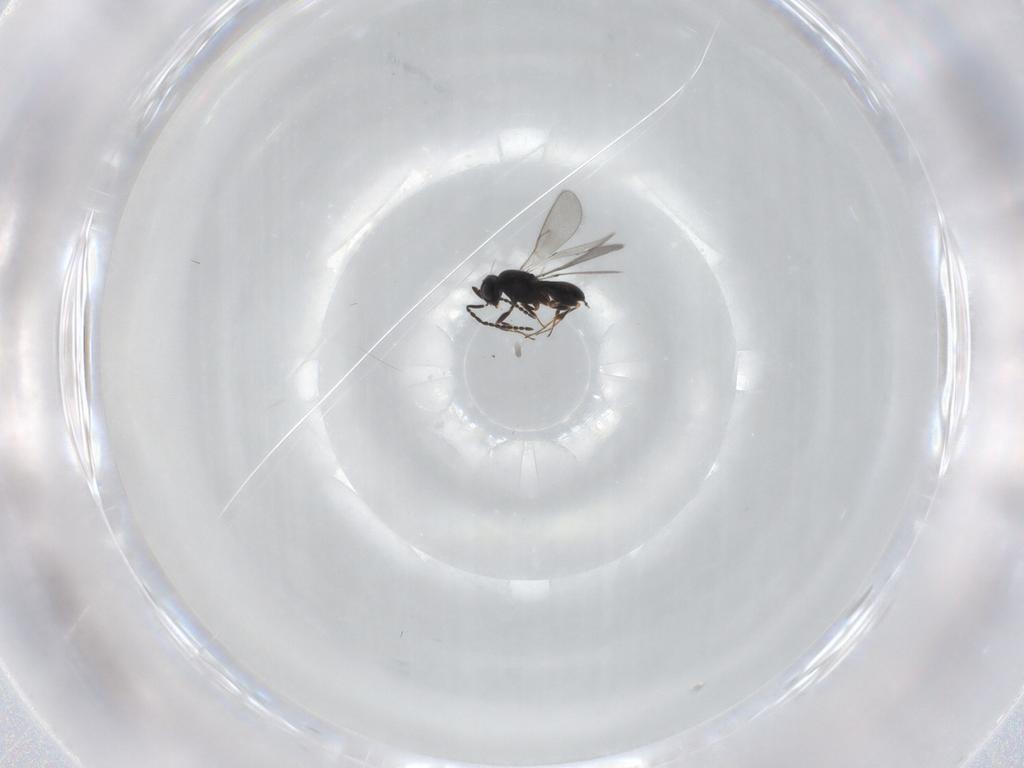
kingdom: Animalia
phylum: Arthropoda
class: Insecta
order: Hymenoptera
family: Scelionidae
